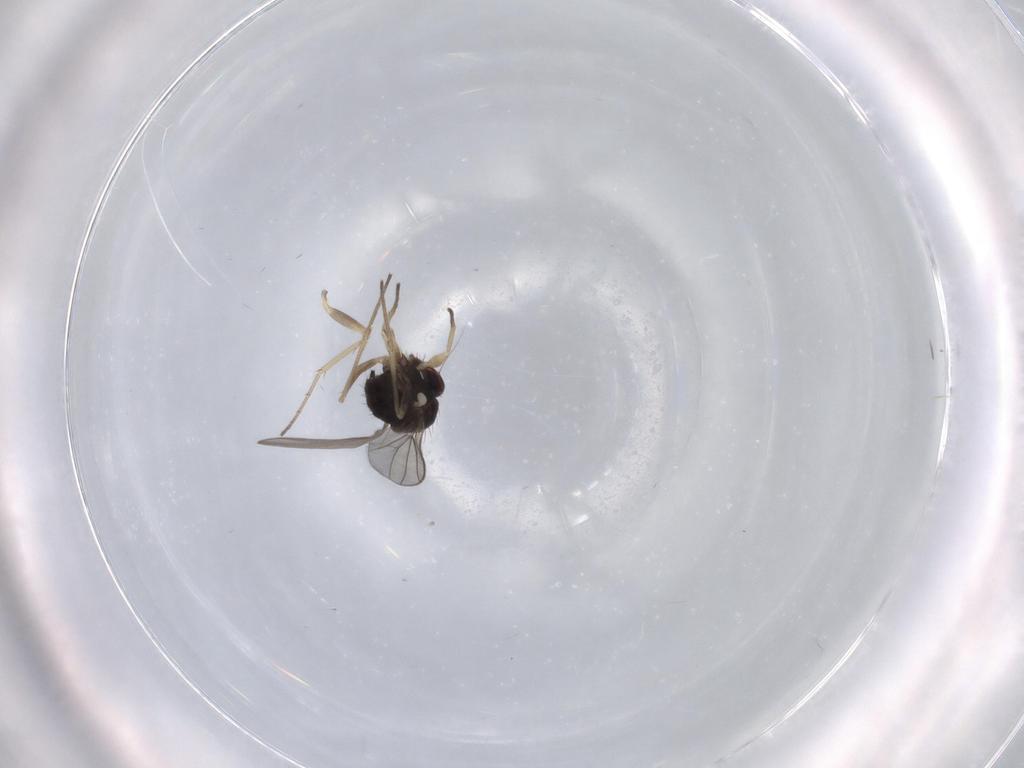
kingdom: Animalia
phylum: Arthropoda
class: Insecta
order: Diptera
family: Dolichopodidae
